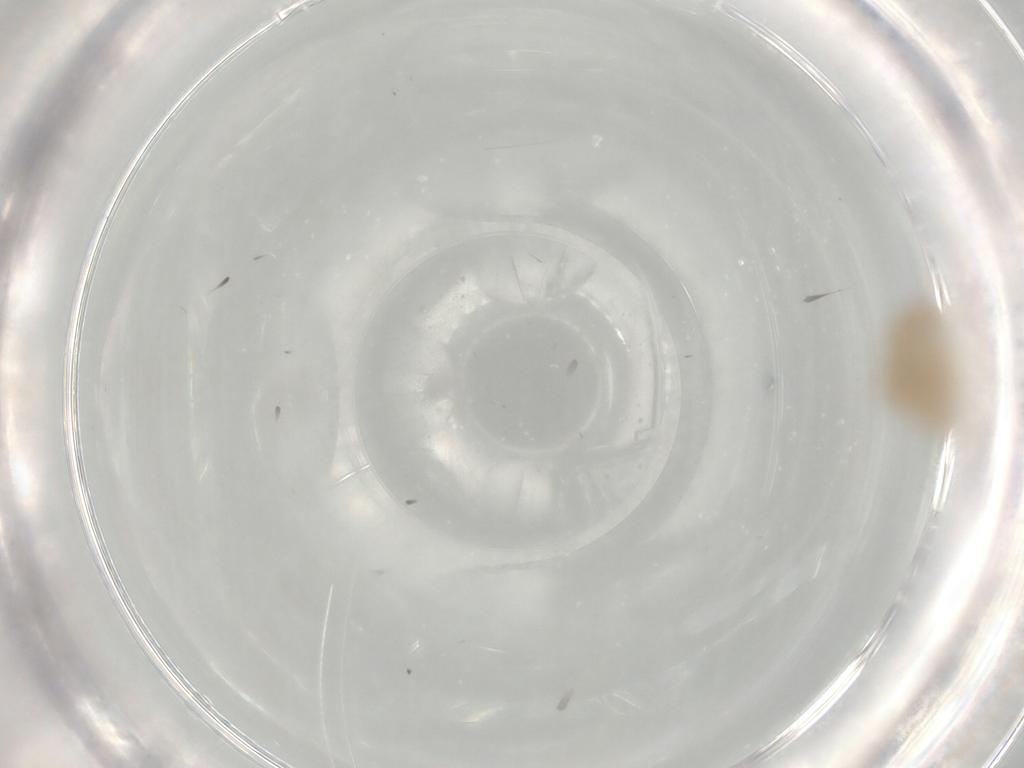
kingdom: Animalia
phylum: Arthropoda
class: Insecta
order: Psocodea
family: Caeciliusidae
